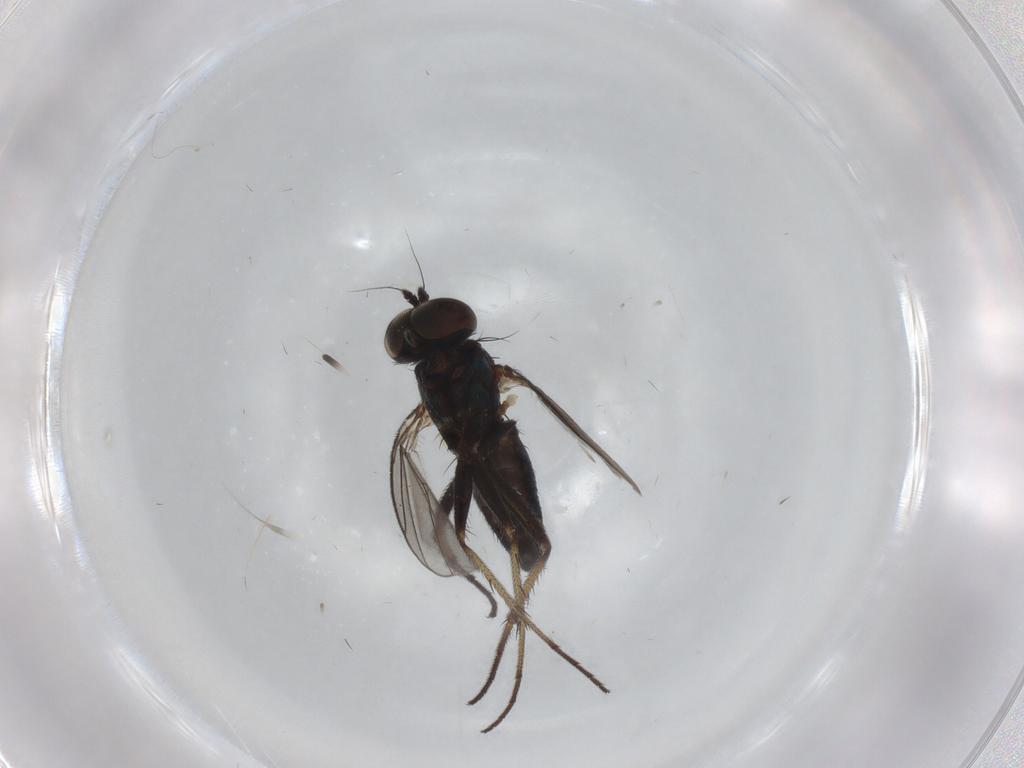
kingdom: Animalia
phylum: Arthropoda
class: Insecta
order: Diptera
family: Dolichopodidae
